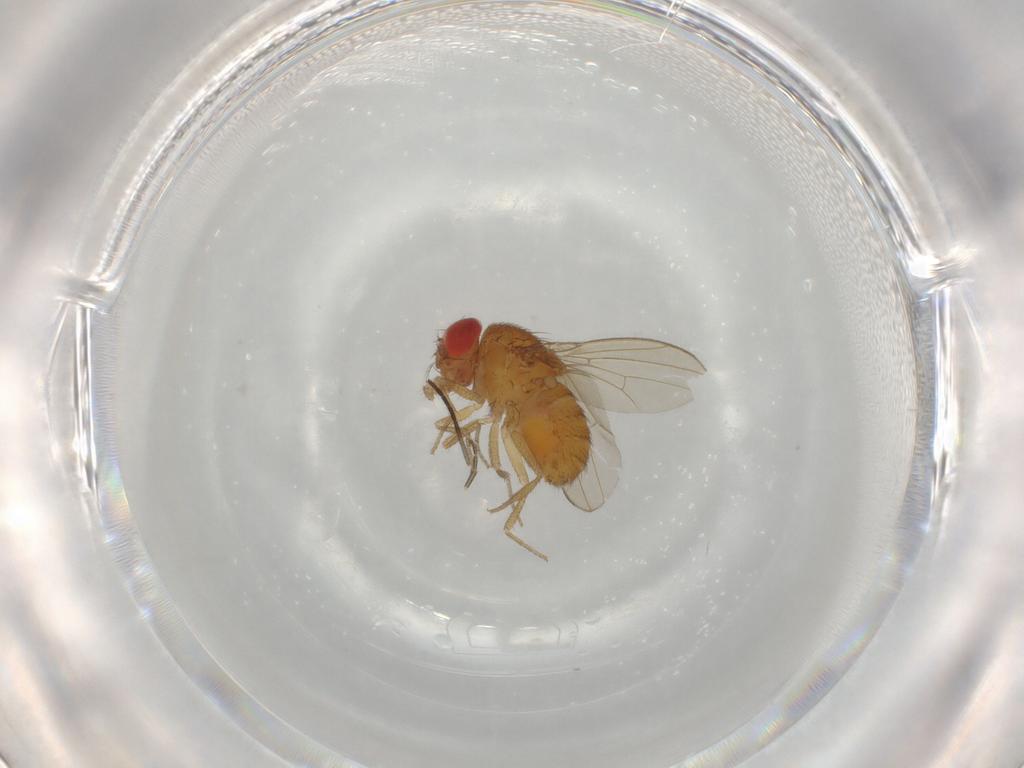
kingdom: Animalia
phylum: Arthropoda
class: Insecta
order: Diptera
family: Drosophilidae
